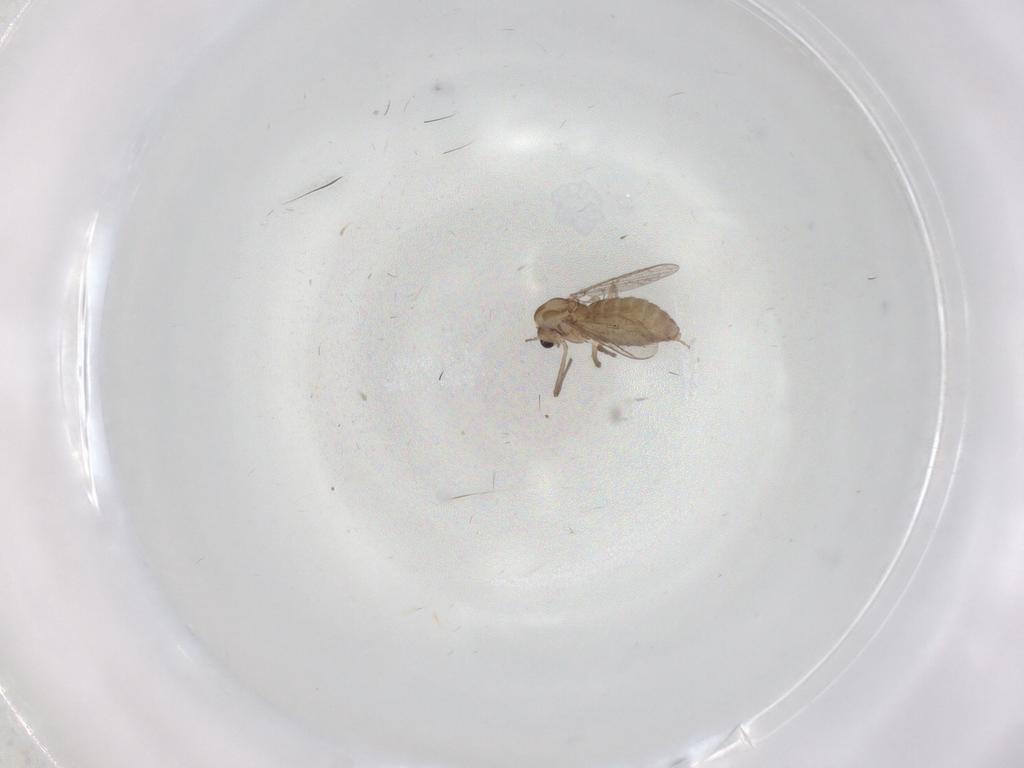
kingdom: Animalia
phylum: Arthropoda
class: Insecta
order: Diptera
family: Chironomidae
